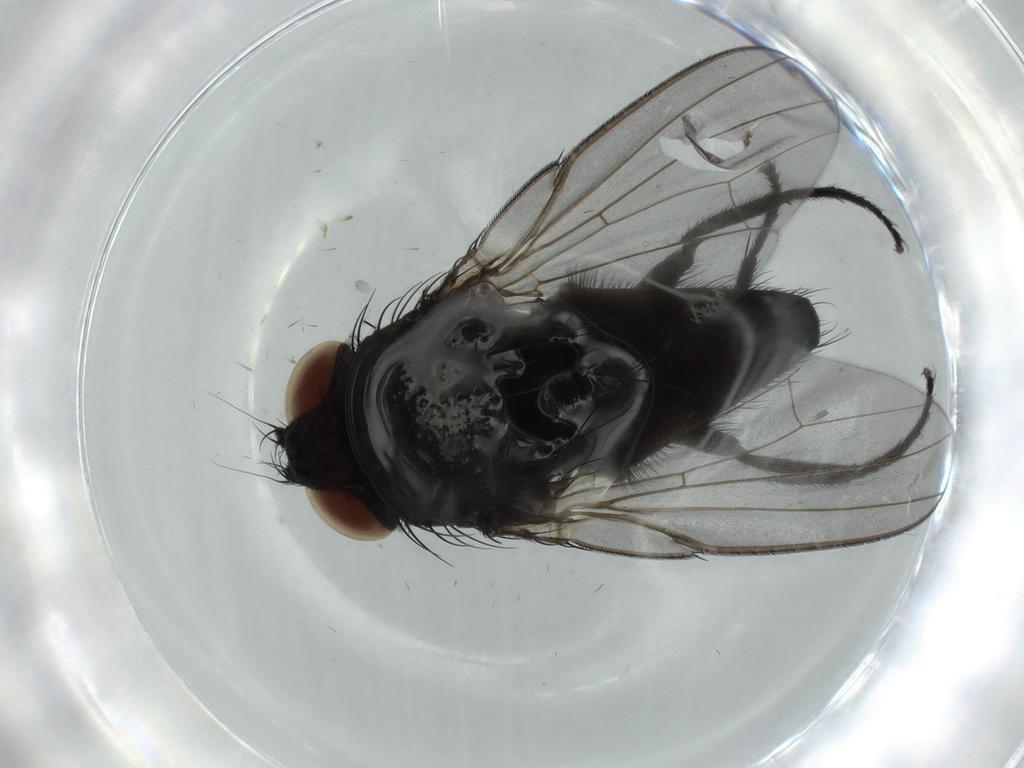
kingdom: Animalia
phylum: Arthropoda
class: Insecta
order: Diptera
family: Milichiidae
